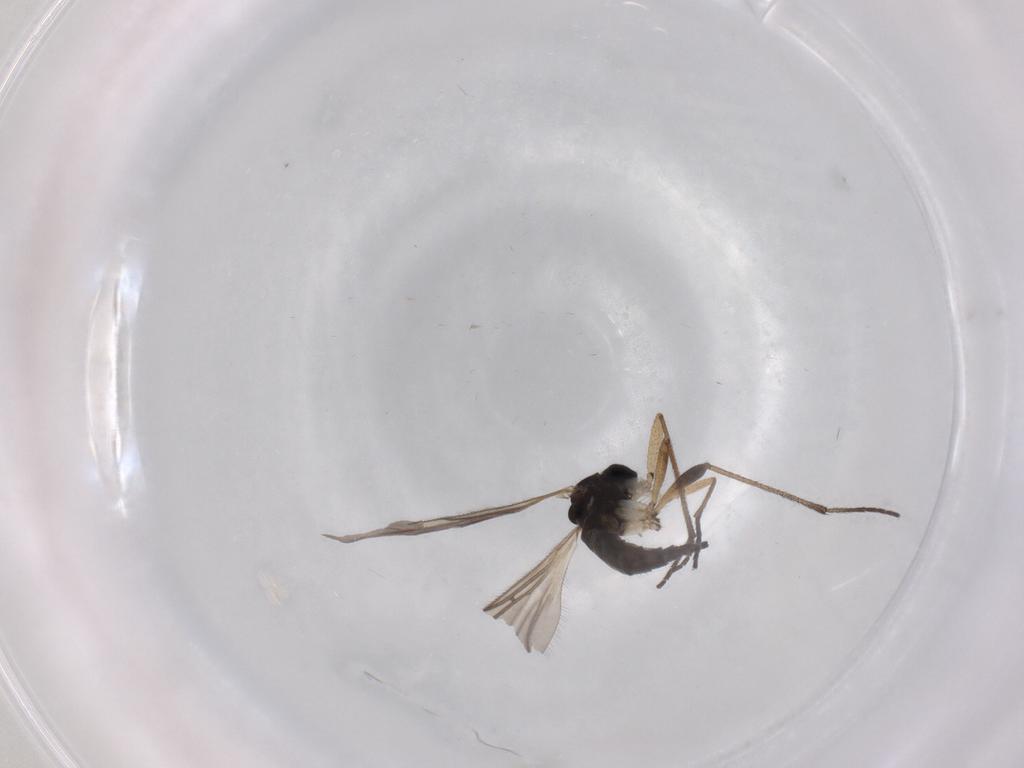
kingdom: Animalia
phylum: Arthropoda
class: Insecta
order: Diptera
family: Sciaridae
